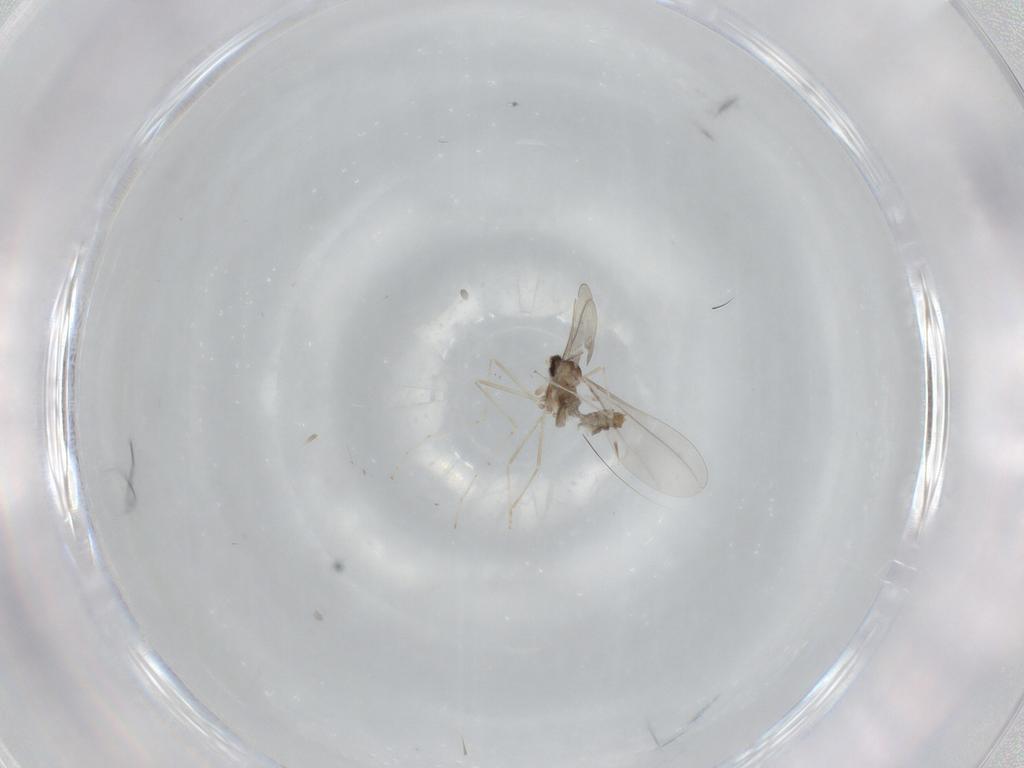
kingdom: Animalia
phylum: Arthropoda
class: Insecta
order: Diptera
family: Cecidomyiidae
